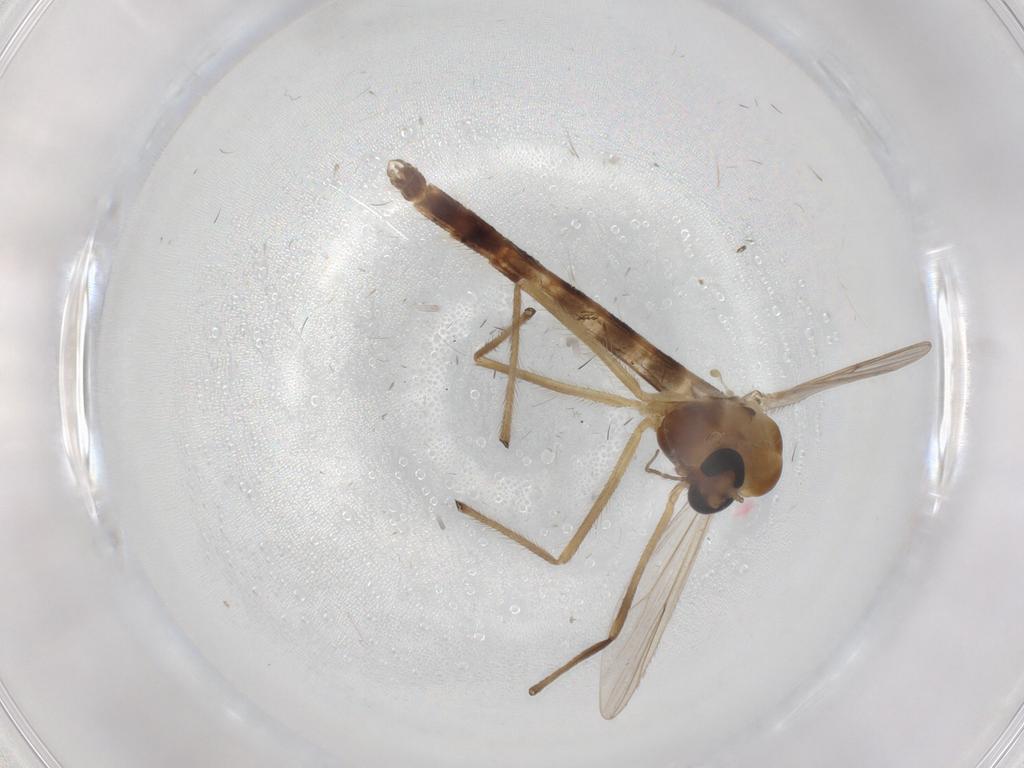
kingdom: Animalia
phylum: Arthropoda
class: Insecta
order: Diptera
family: Chironomidae
